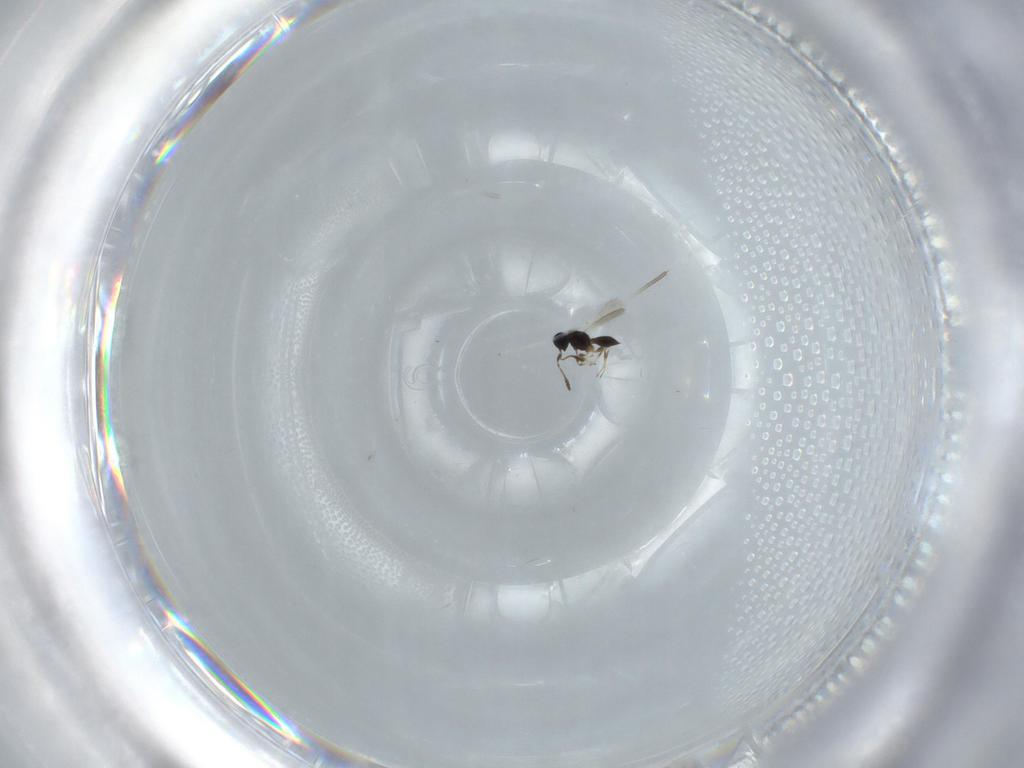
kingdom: Animalia
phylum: Arthropoda
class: Insecta
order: Hymenoptera
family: Scelionidae
